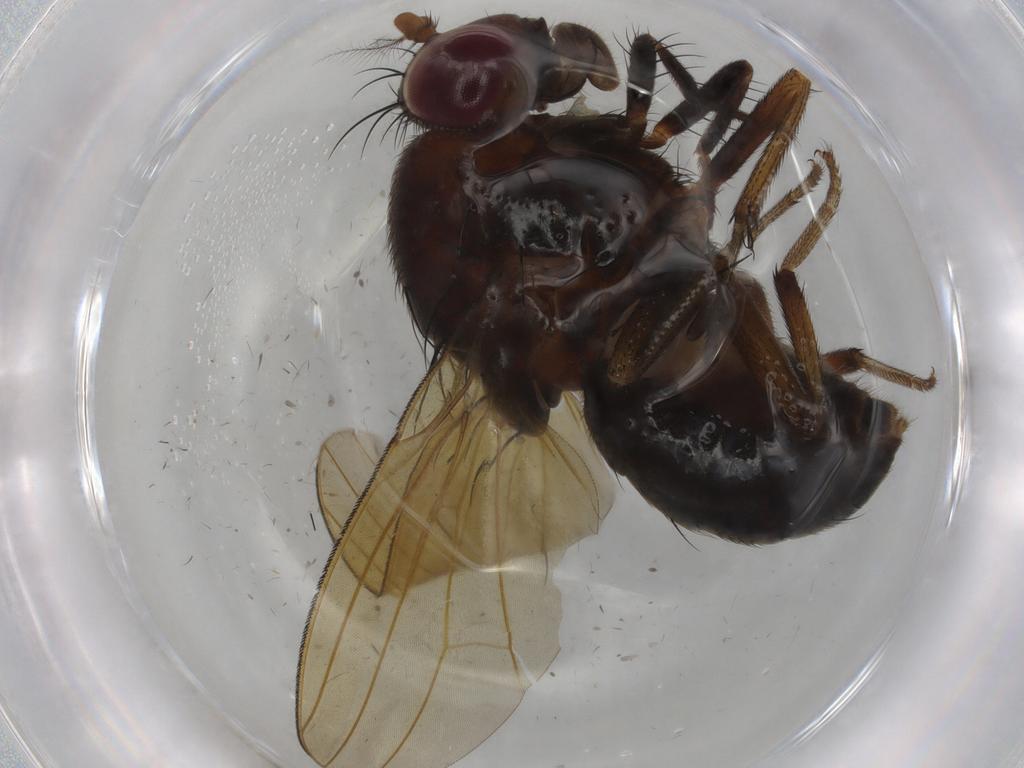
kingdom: Animalia
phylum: Arthropoda
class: Insecta
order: Diptera
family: Phoridae
